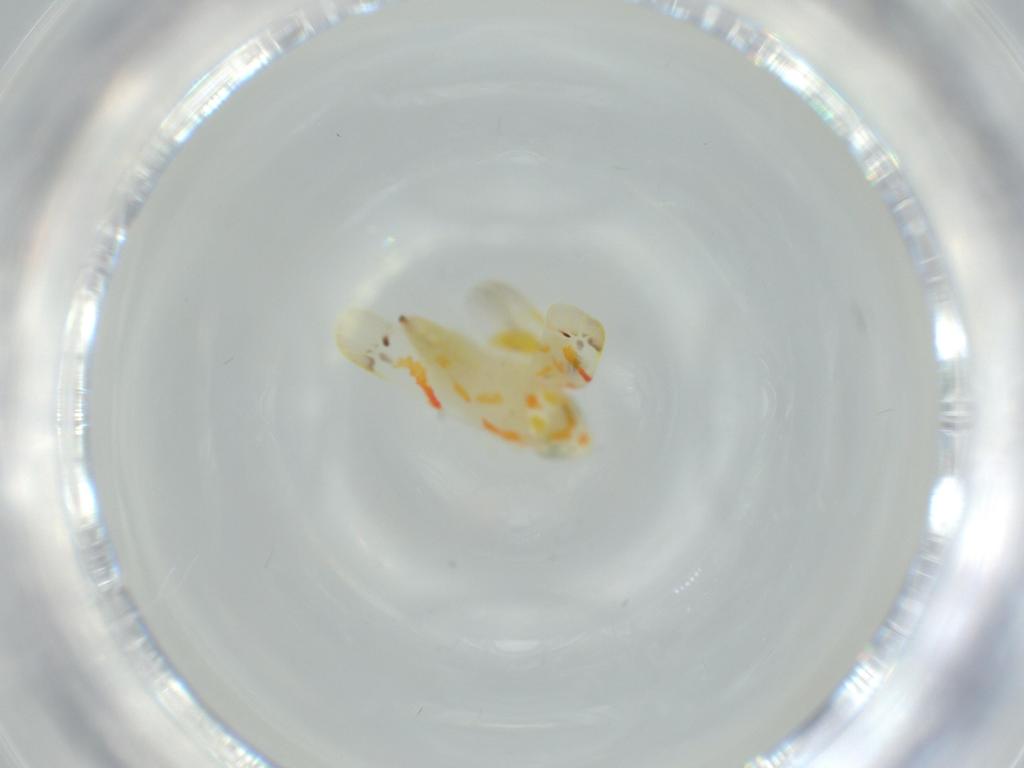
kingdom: Animalia
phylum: Arthropoda
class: Insecta
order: Hemiptera
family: Cicadellidae
